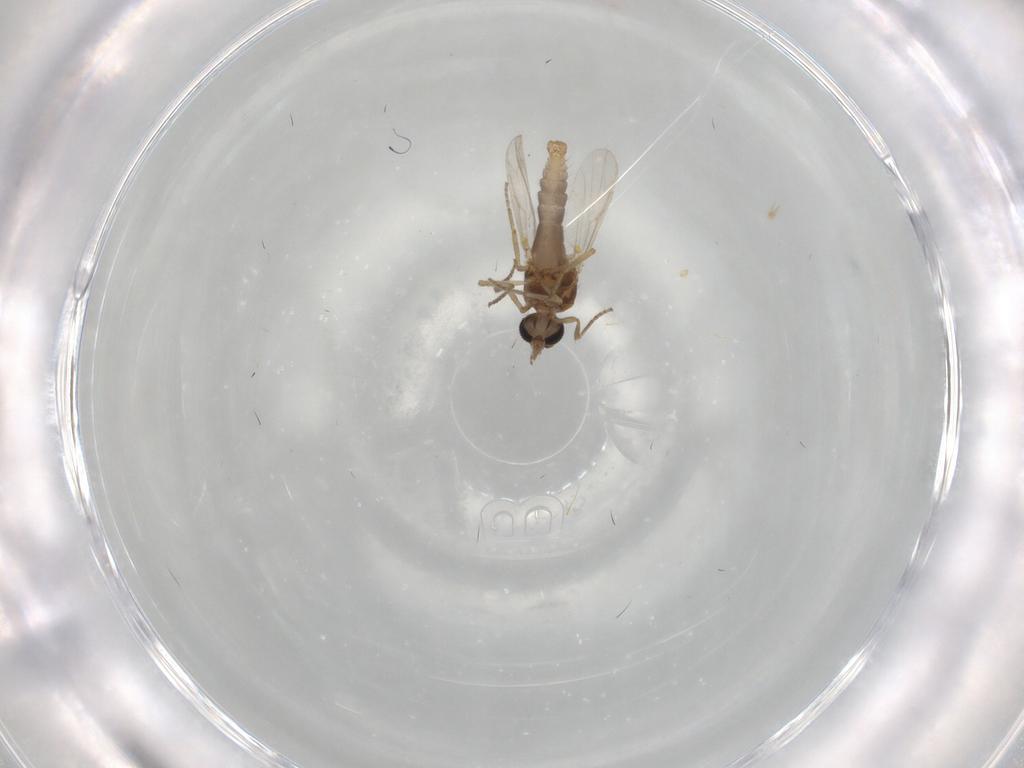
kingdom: Animalia
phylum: Arthropoda
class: Insecta
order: Diptera
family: Ceratopogonidae
